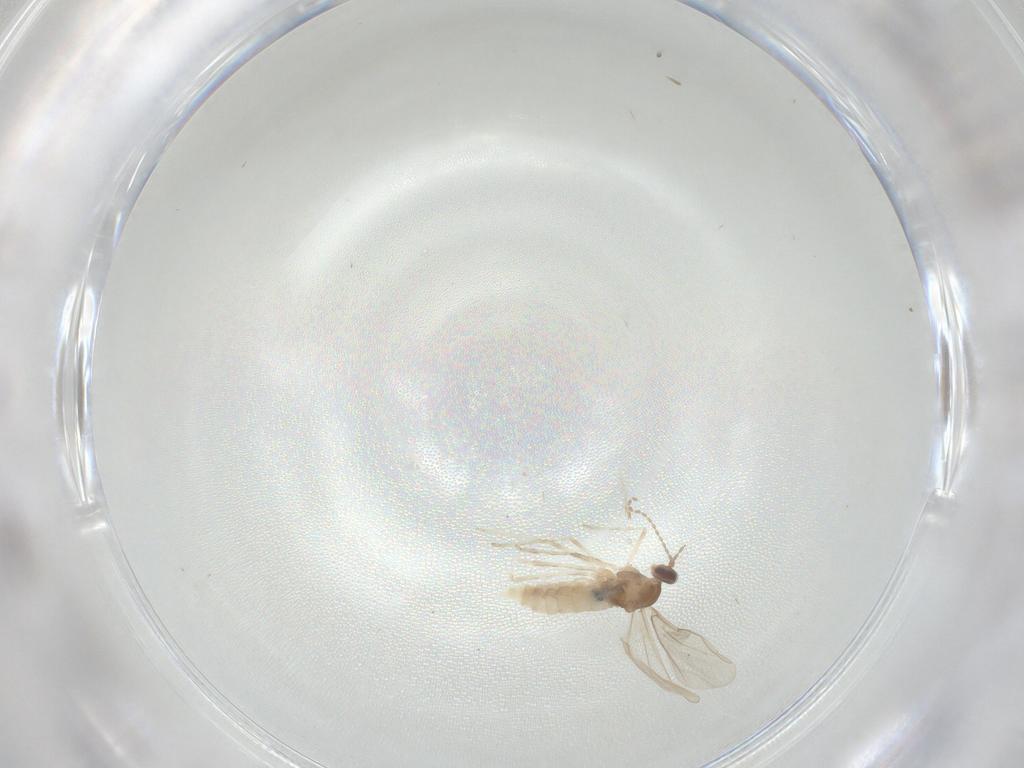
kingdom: Animalia
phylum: Arthropoda
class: Insecta
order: Diptera
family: Cecidomyiidae
